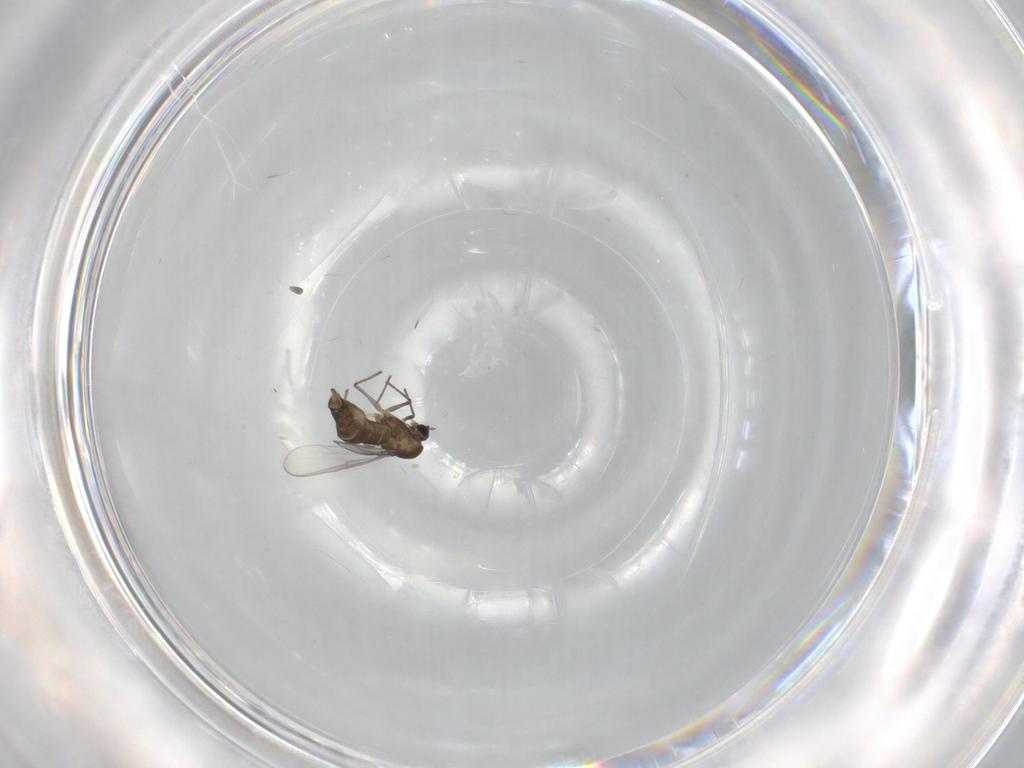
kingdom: Animalia
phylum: Arthropoda
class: Insecta
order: Diptera
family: Chironomidae
